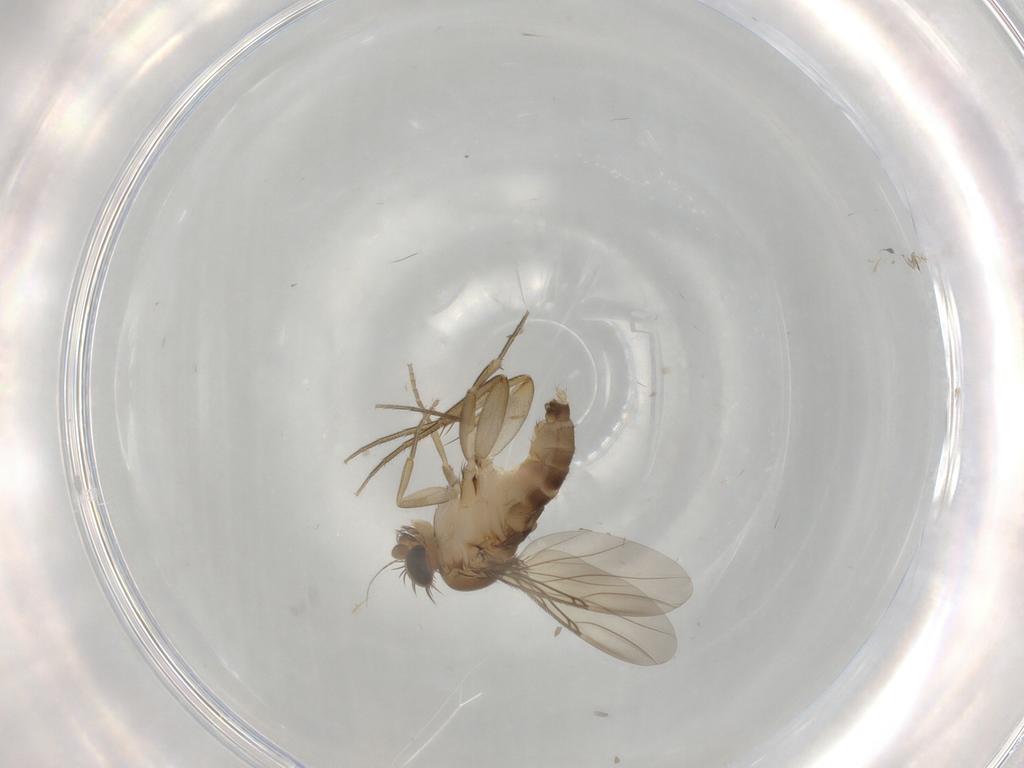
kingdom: Animalia
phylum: Arthropoda
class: Insecta
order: Diptera
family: Phoridae
